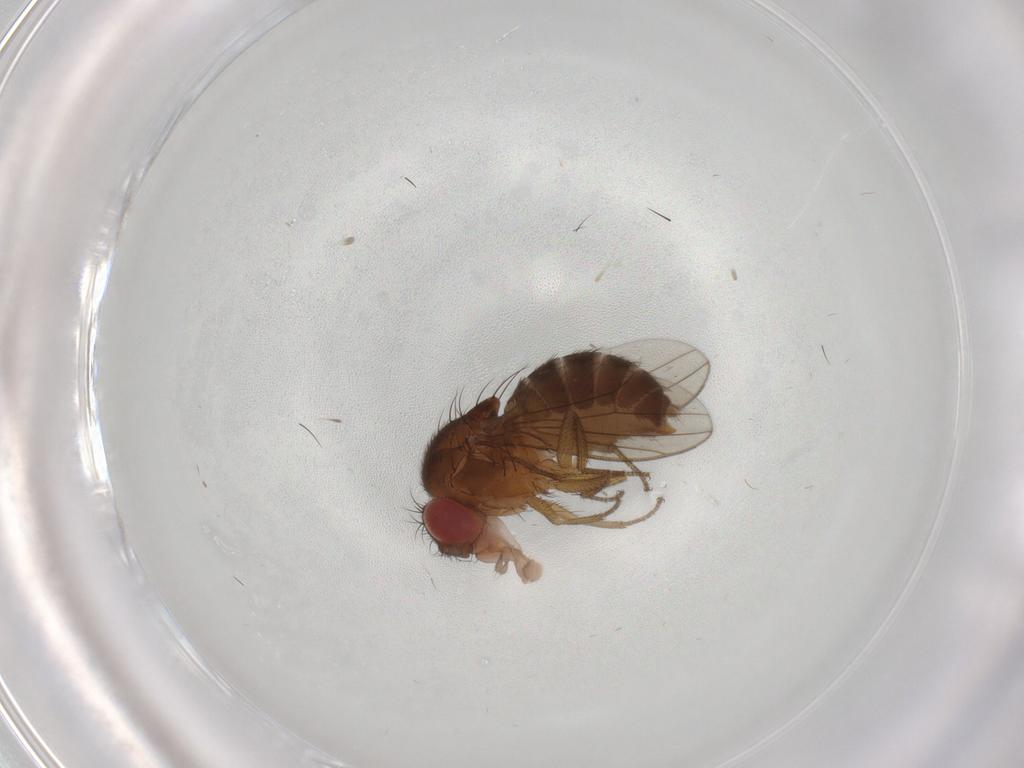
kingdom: Animalia
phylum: Arthropoda
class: Insecta
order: Diptera
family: Drosophilidae
